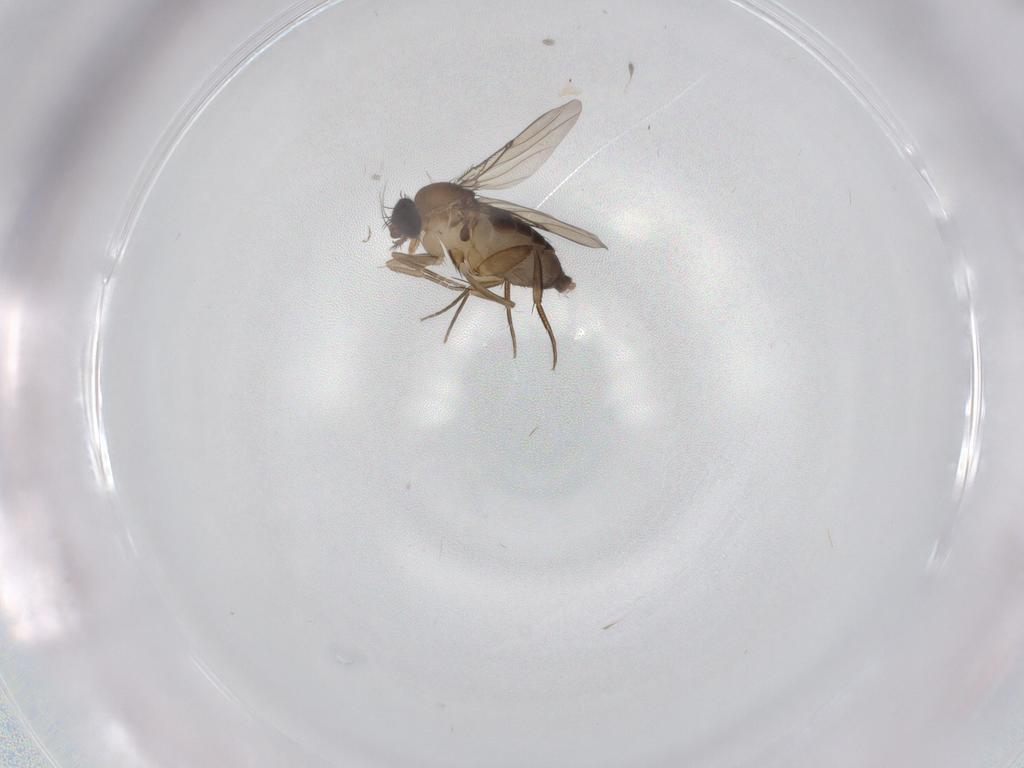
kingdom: Animalia
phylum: Arthropoda
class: Insecta
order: Diptera
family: Phoridae
